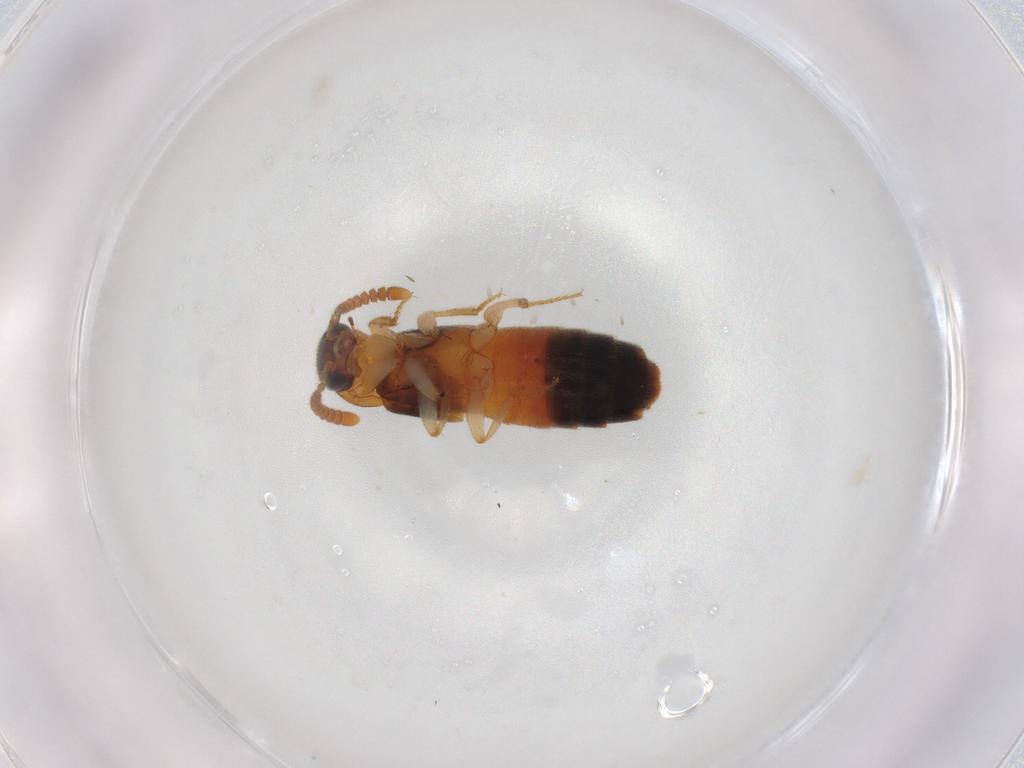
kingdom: Animalia
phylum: Arthropoda
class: Insecta
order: Coleoptera
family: Staphylinidae
